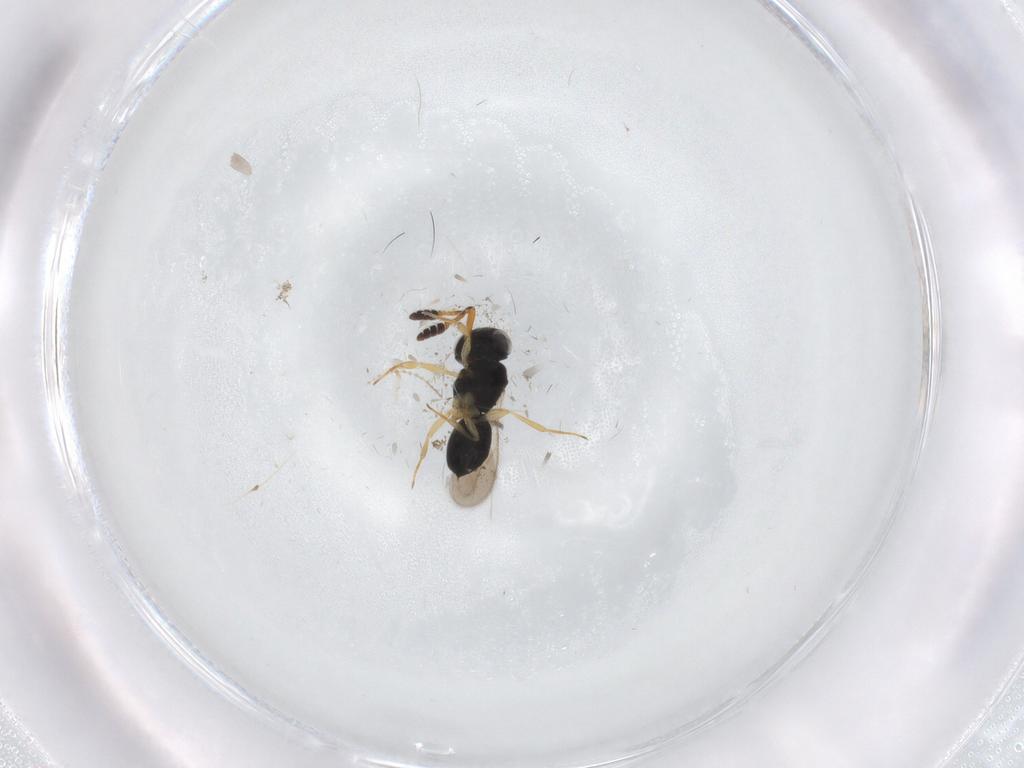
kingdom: Animalia
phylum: Arthropoda
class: Insecta
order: Hymenoptera
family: Scelionidae
